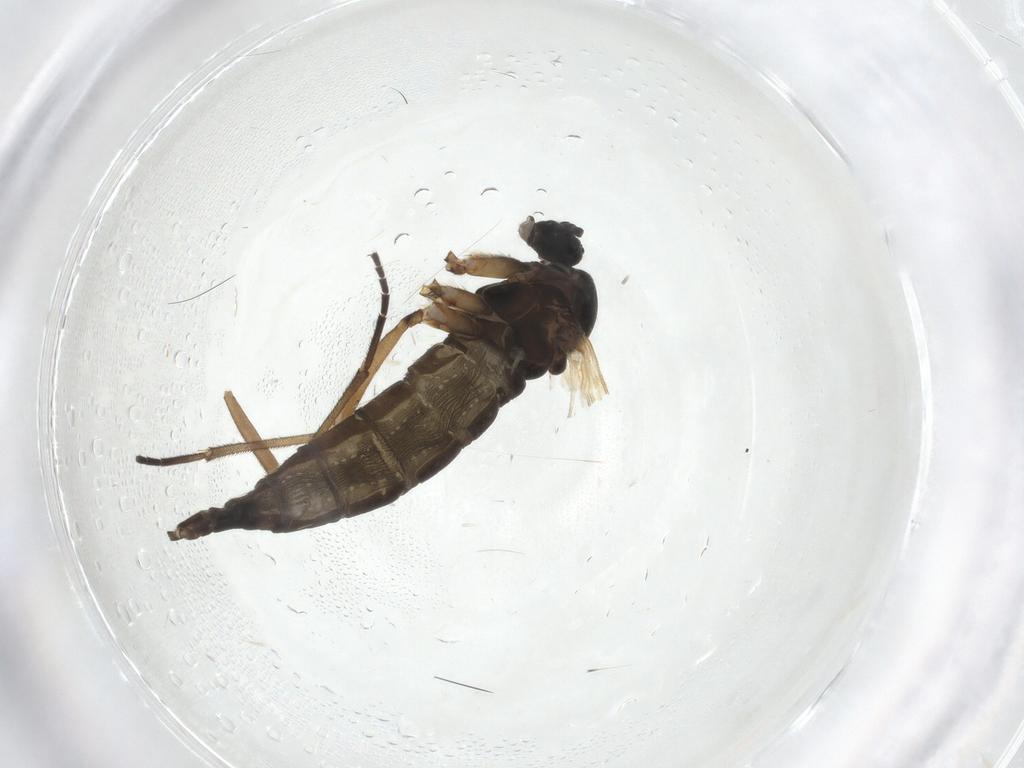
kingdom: Animalia
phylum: Arthropoda
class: Insecta
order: Diptera
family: Sciaridae
